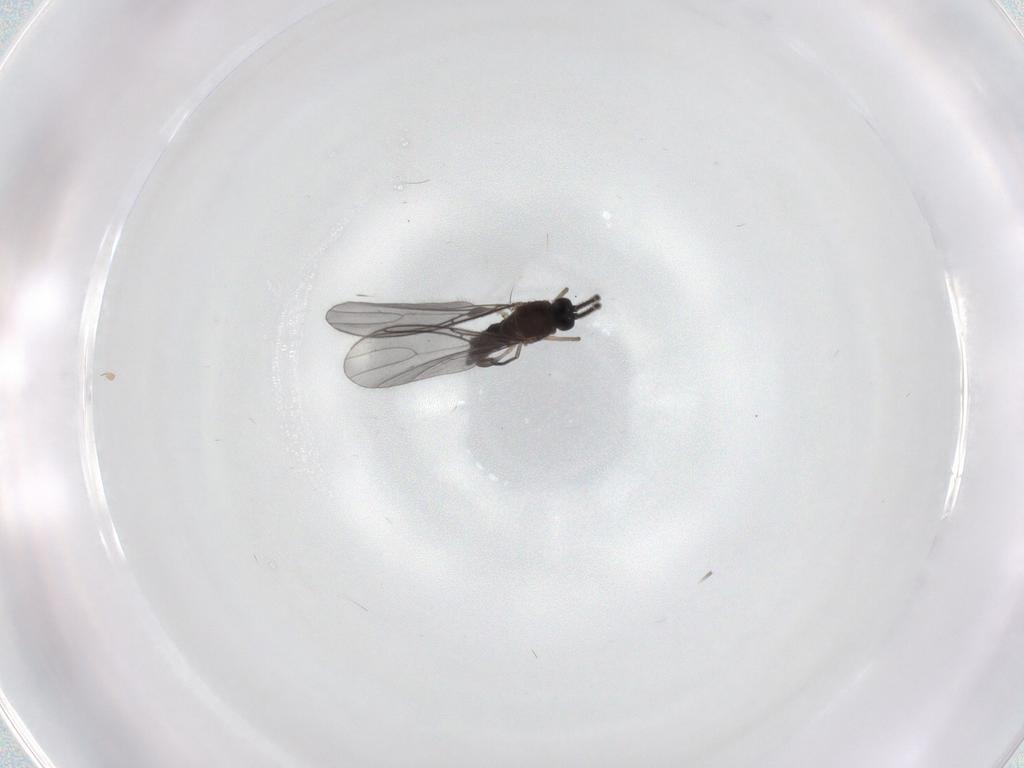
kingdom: Animalia
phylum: Arthropoda
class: Insecta
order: Diptera
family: Sciaridae
